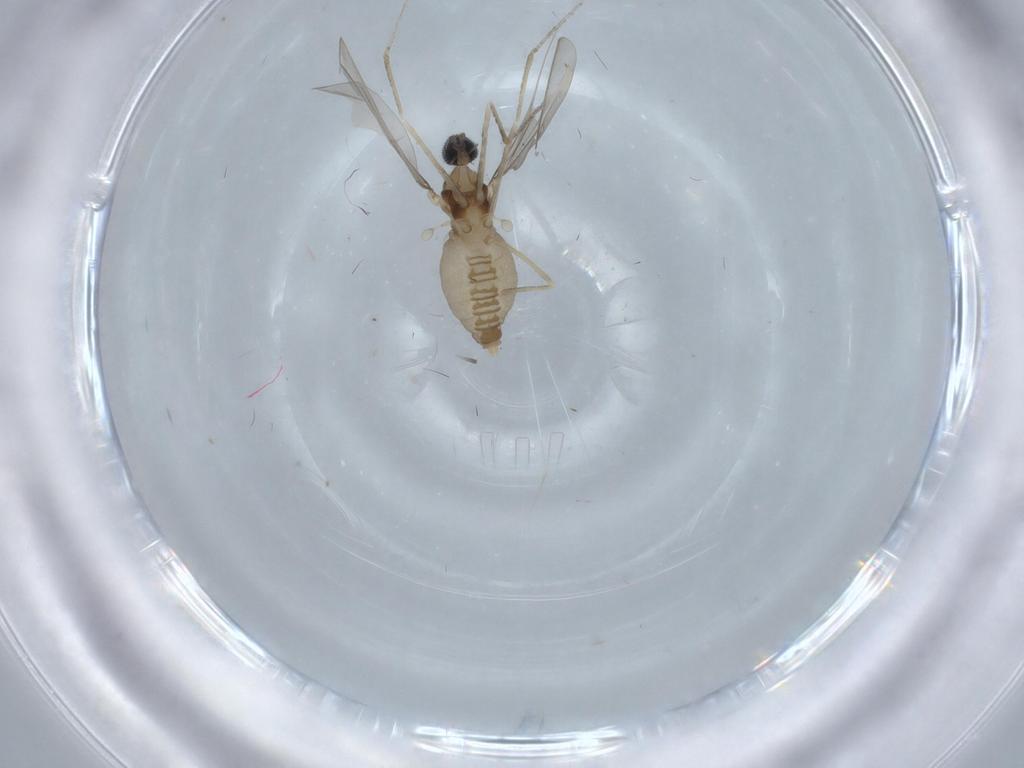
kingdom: Animalia
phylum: Arthropoda
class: Insecta
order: Diptera
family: Cecidomyiidae
